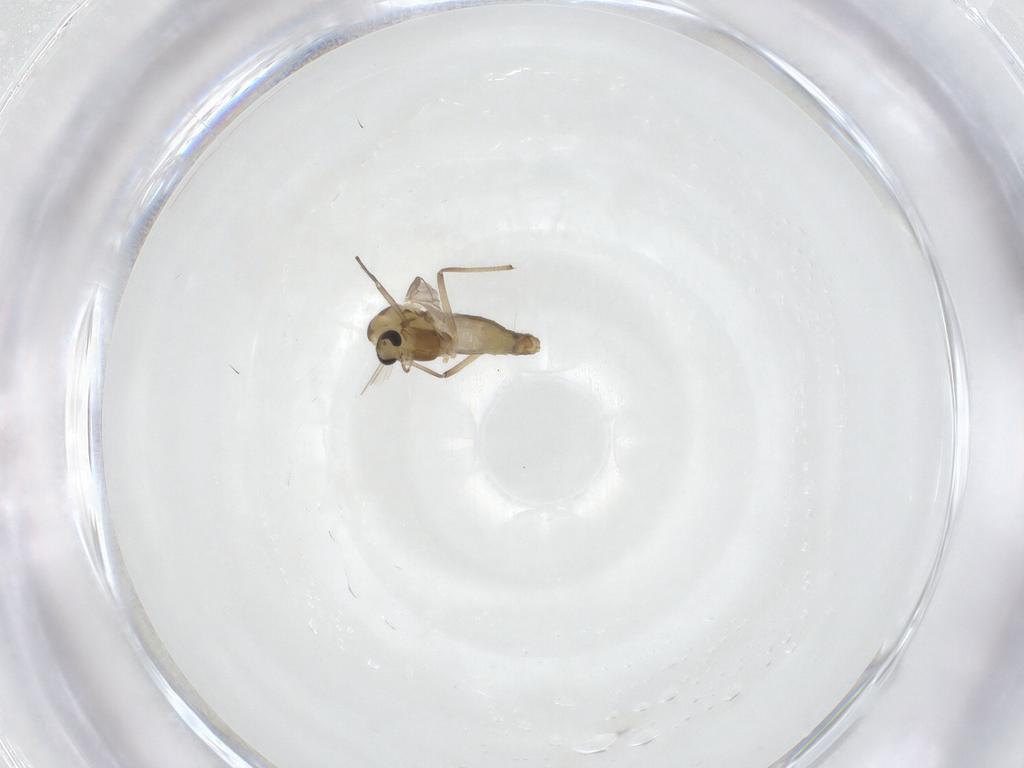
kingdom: Animalia
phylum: Arthropoda
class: Insecta
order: Diptera
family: Chironomidae
